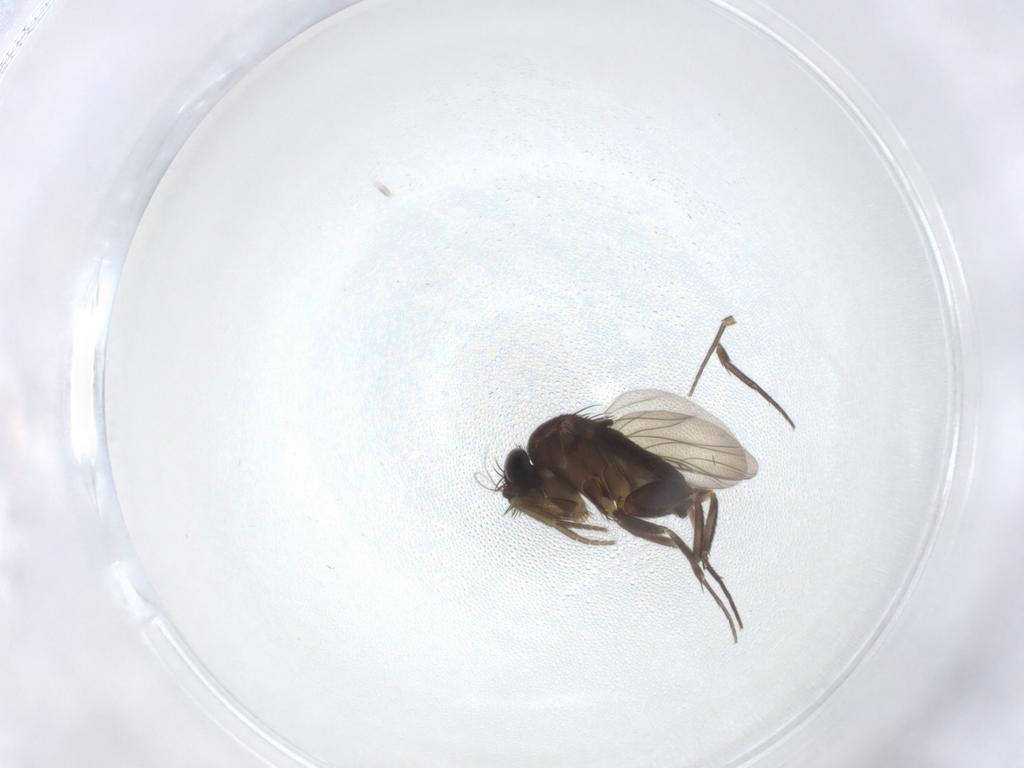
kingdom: Animalia
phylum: Arthropoda
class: Insecta
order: Diptera
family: Phoridae
